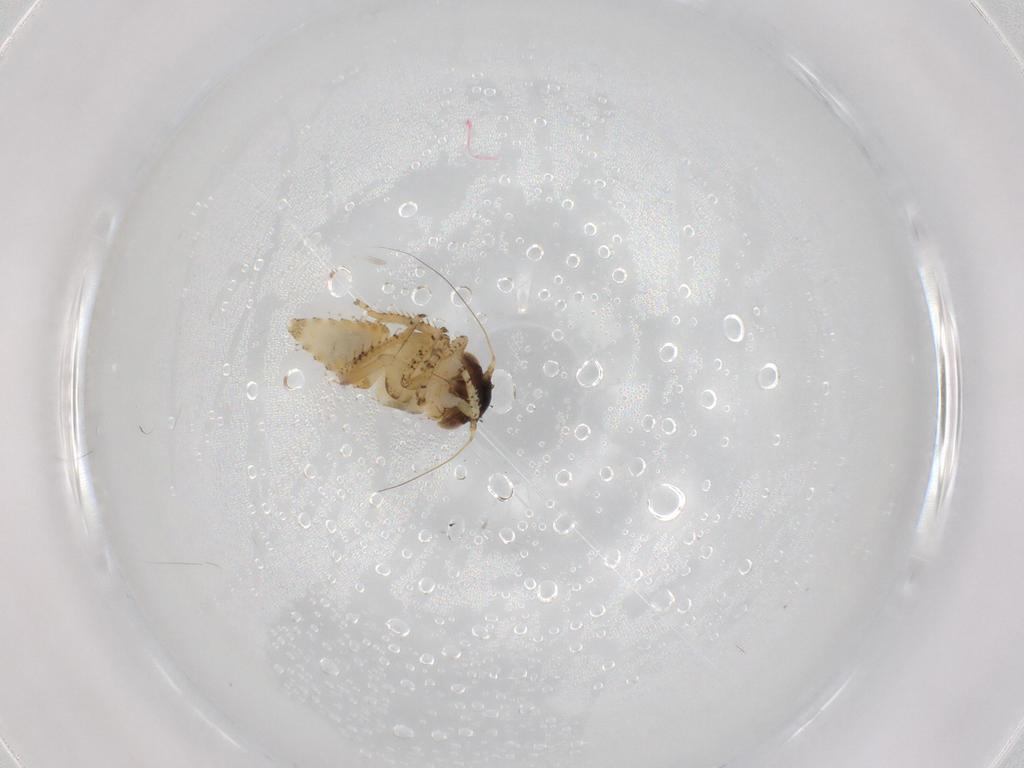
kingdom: Animalia
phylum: Arthropoda
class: Insecta
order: Hemiptera
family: Cicadellidae
